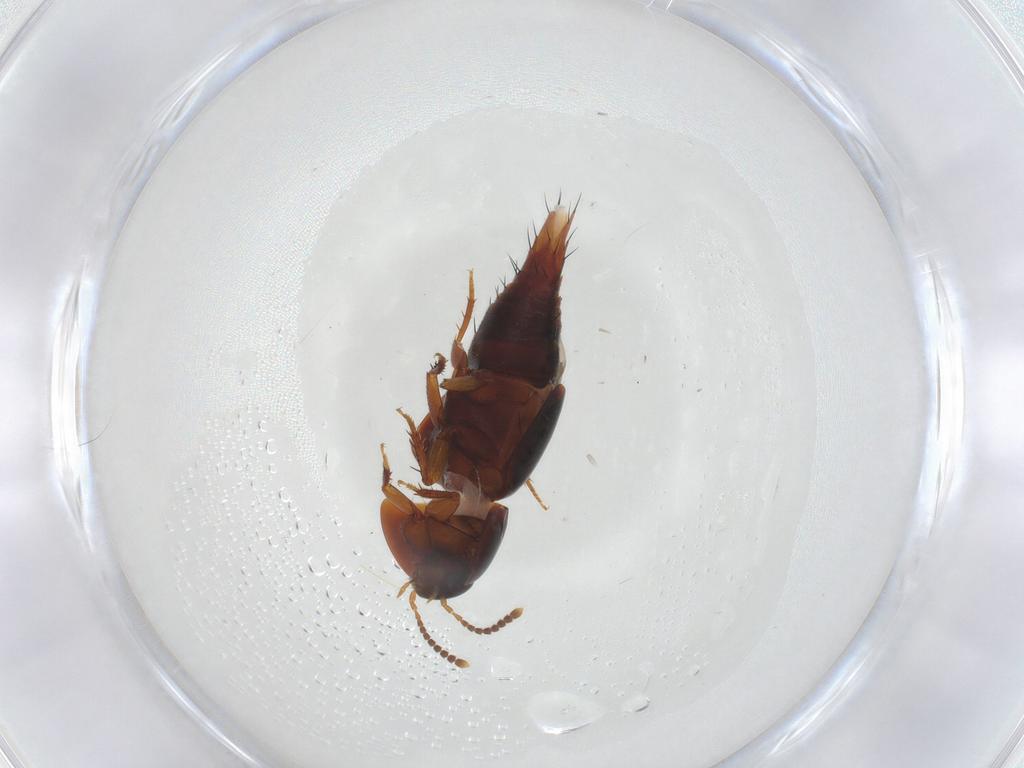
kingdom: Animalia
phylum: Arthropoda
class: Insecta
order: Coleoptera
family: Staphylinidae
